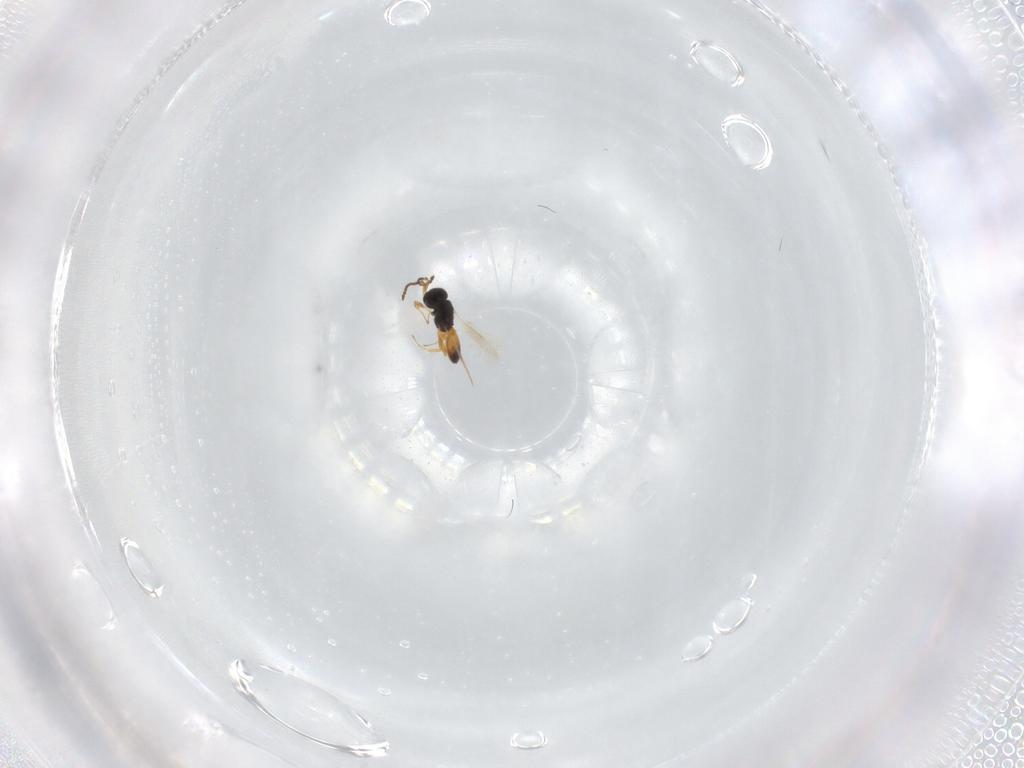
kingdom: Animalia
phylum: Arthropoda
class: Insecta
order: Hymenoptera
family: Scelionidae
